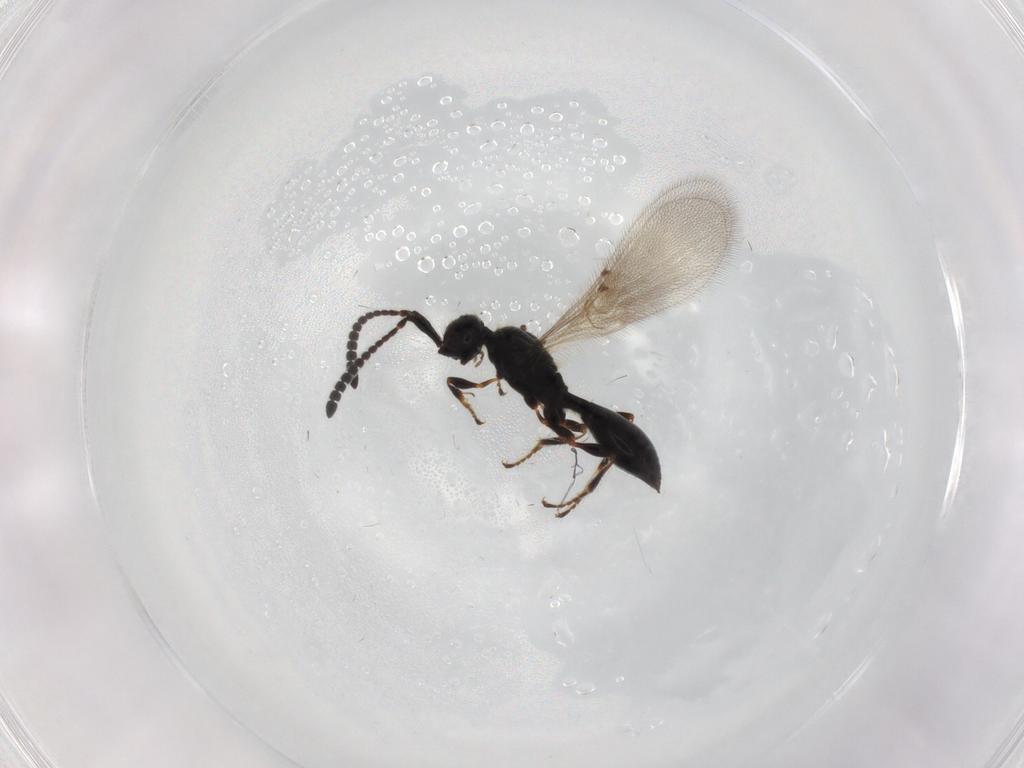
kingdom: Animalia
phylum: Arthropoda
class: Insecta
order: Hymenoptera
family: Diapriidae
